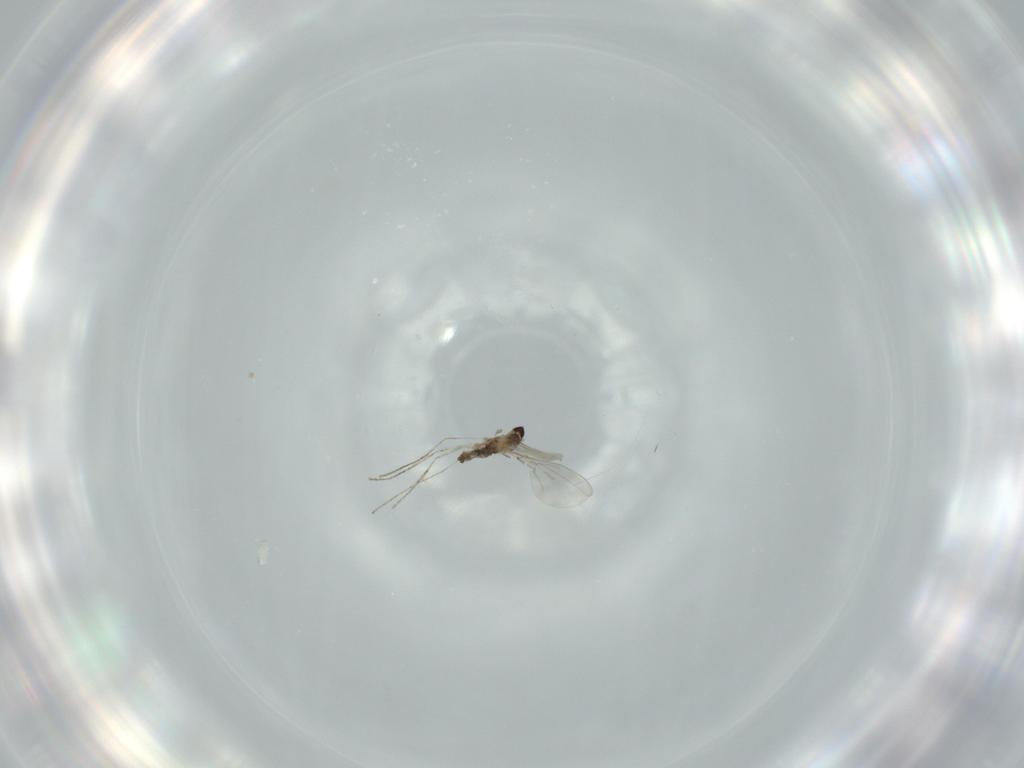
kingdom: Animalia
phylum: Arthropoda
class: Insecta
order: Diptera
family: Cecidomyiidae
